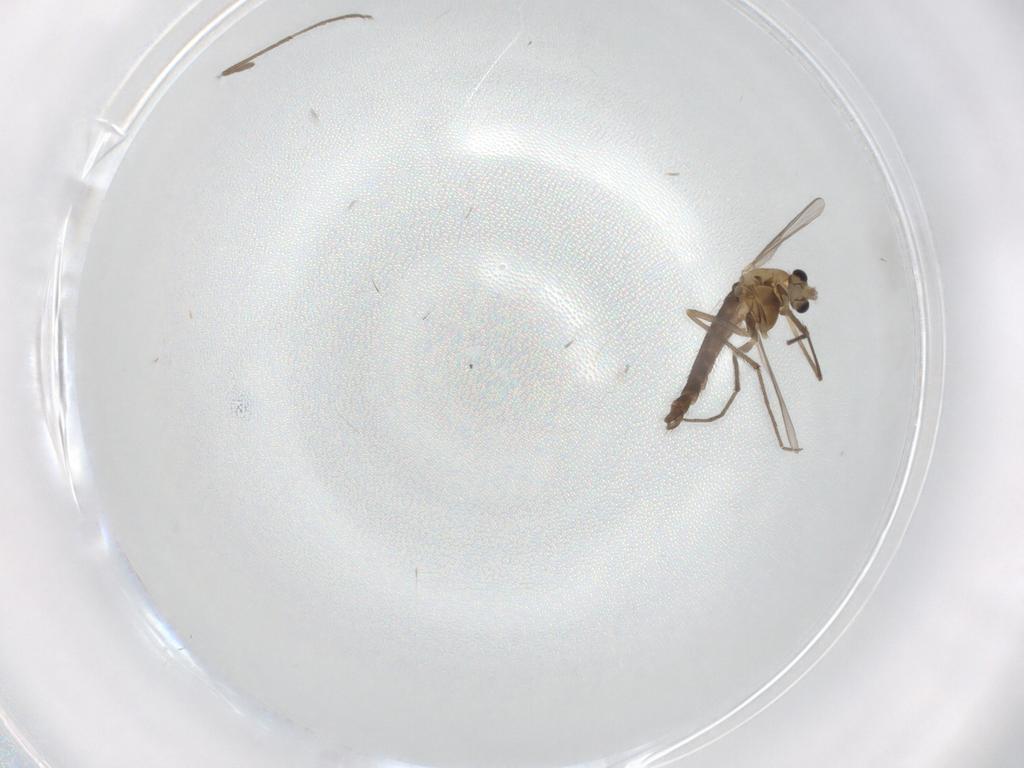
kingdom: Animalia
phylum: Arthropoda
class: Insecta
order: Diptera
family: Chironomidae
